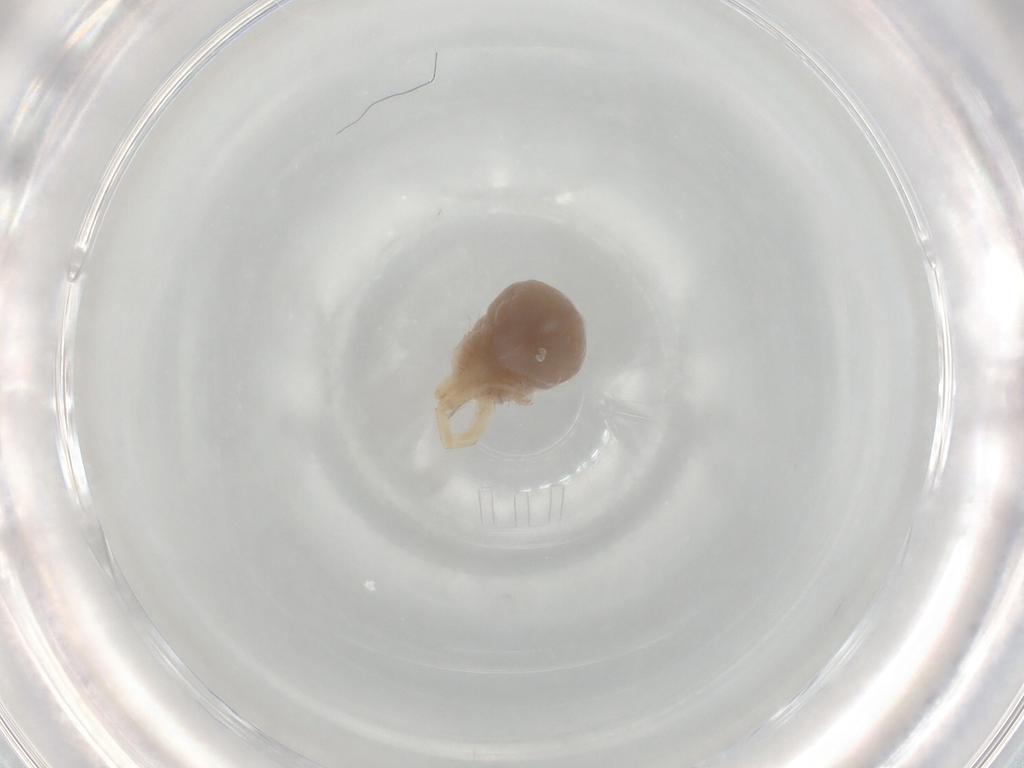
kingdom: Animalia
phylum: Arthropoda
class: Arachnida
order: Trombidiformes
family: Anystidae
